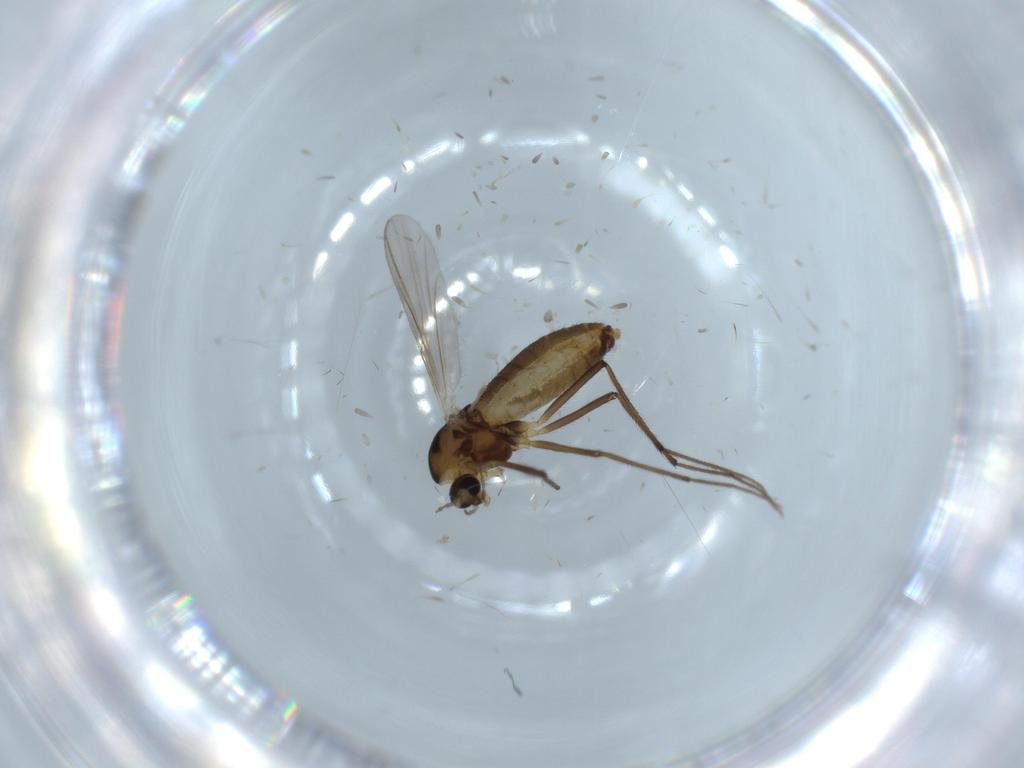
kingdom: Animalia
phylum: Arthropoda
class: Insecta
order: Diptera
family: Chironomidae
